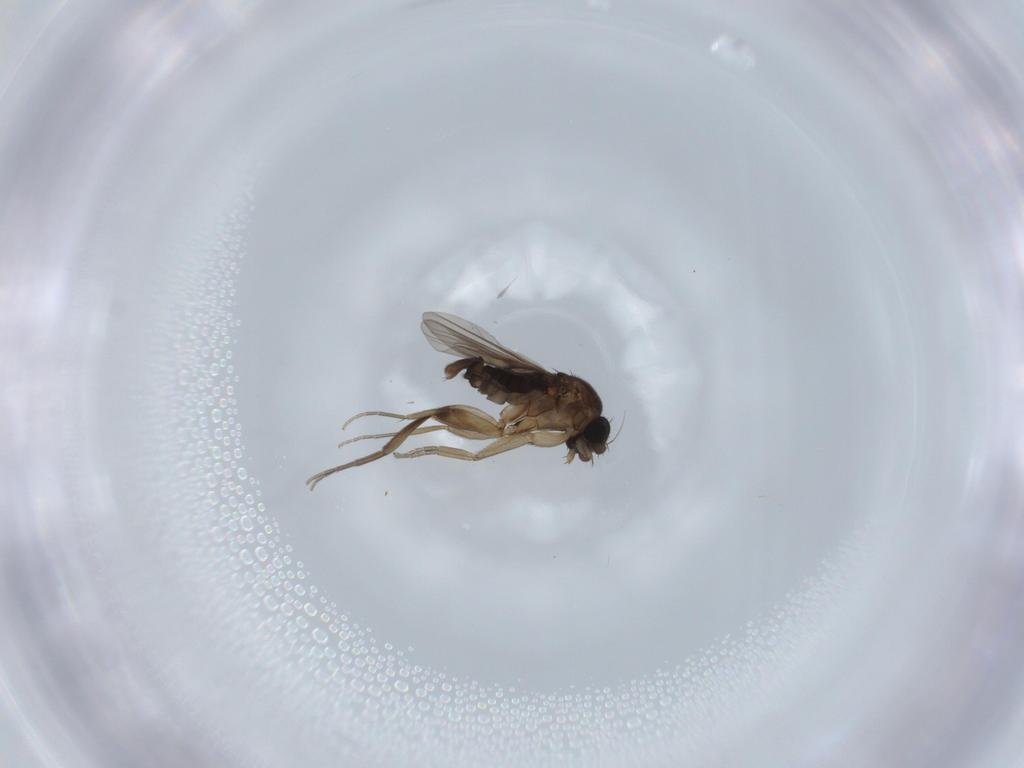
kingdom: Animalia
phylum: Arthropoda
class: Insecta
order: Diptera
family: Phoridae
